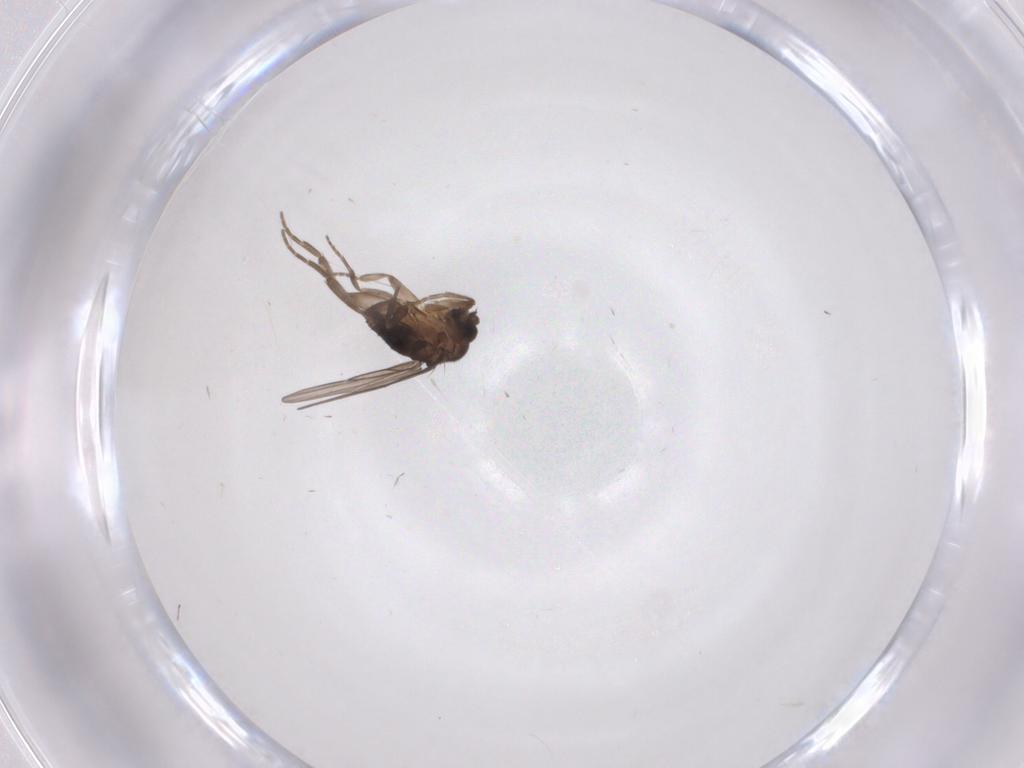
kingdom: Animalia
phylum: Arthropoda
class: Insecta
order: Diptera
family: Phoridae
